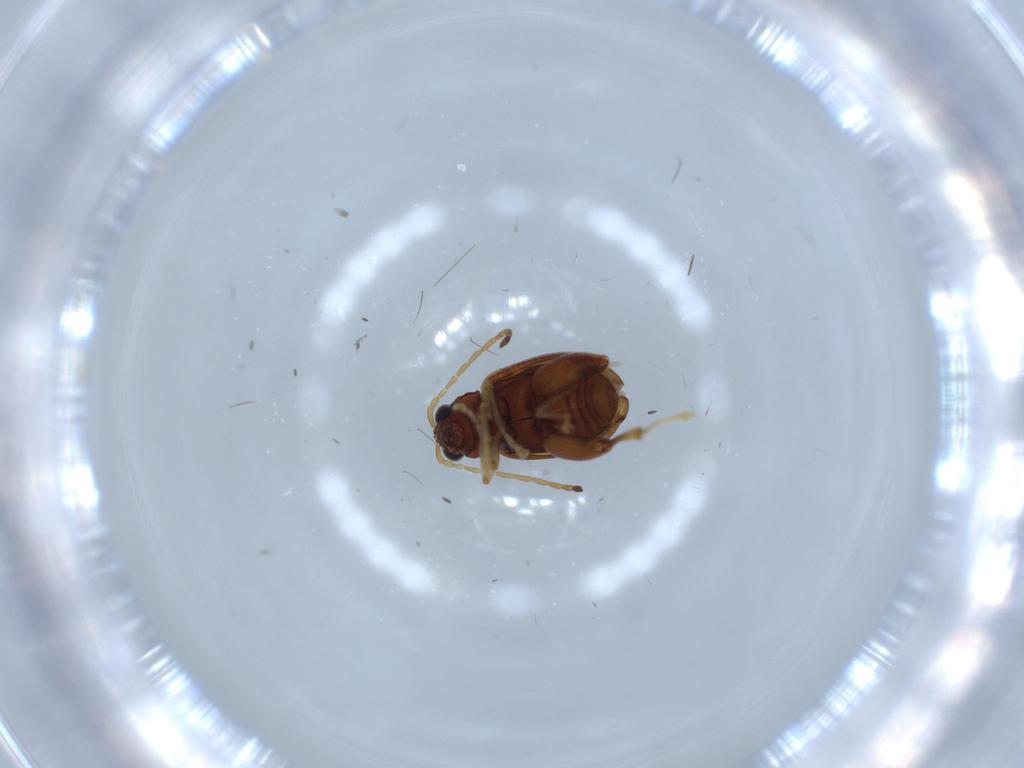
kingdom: Animalia
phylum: Arthropoda
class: Insecta
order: Coleoptera
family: Chrysomelidae
